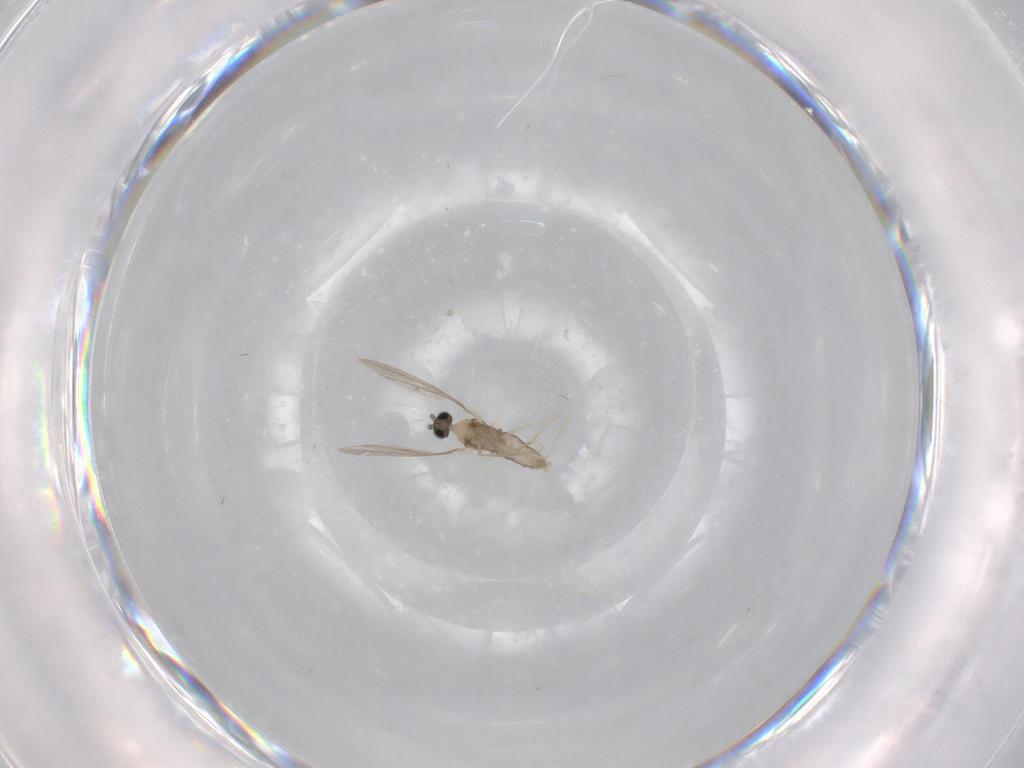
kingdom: Animalia
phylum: Arthropoda
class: Insecta
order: Diptera
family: Cecidomyiidae
